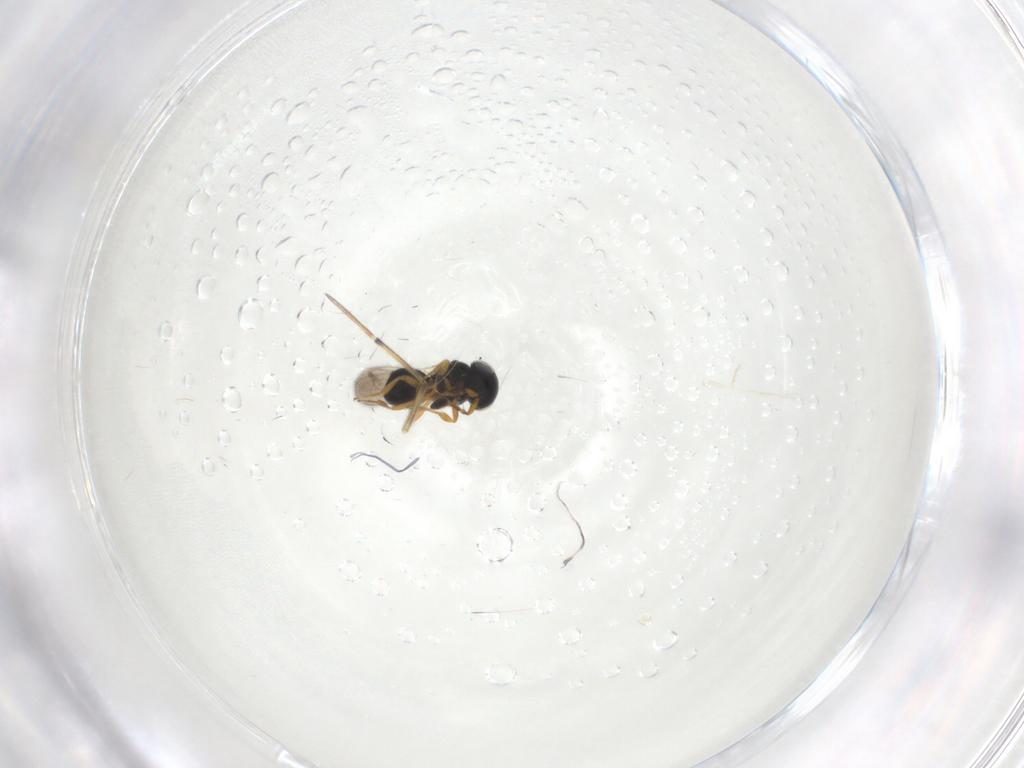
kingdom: Animalia
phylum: Arthropoda
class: Insecta
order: Hymenoptera
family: Scelionidae
